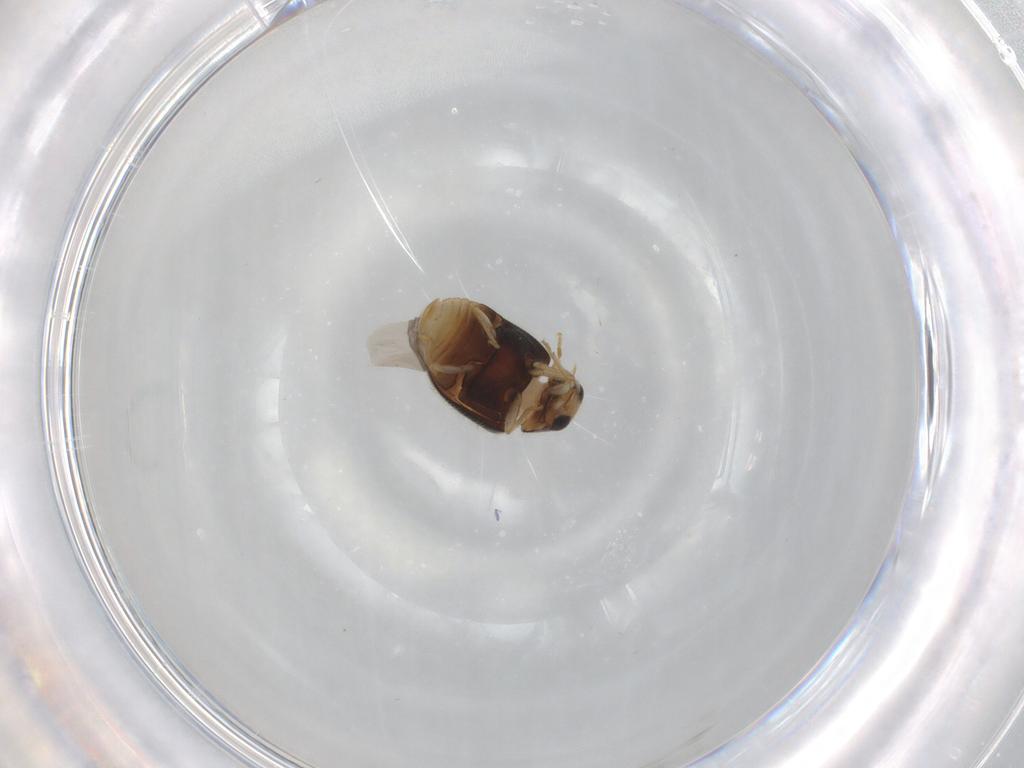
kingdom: Animalia
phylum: Arthropoda
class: Insecta
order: Coleoptera
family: Coccinellidae
